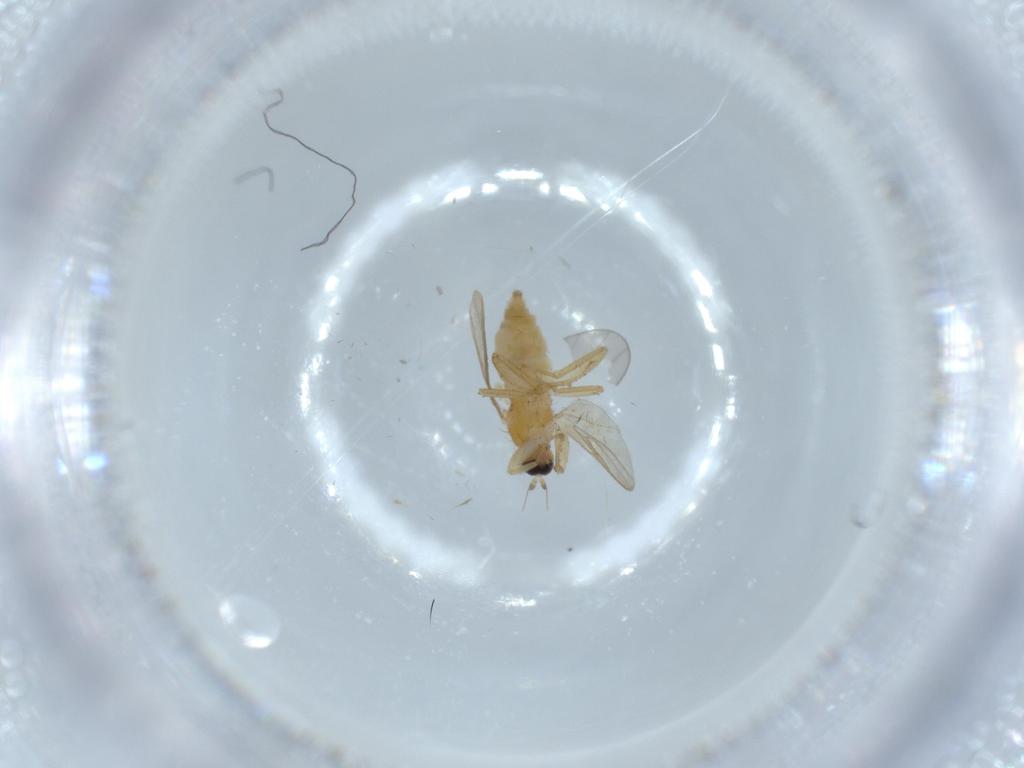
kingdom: Animalia
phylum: Arthropoda
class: Insecta
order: Diptera
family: Hybotidae
